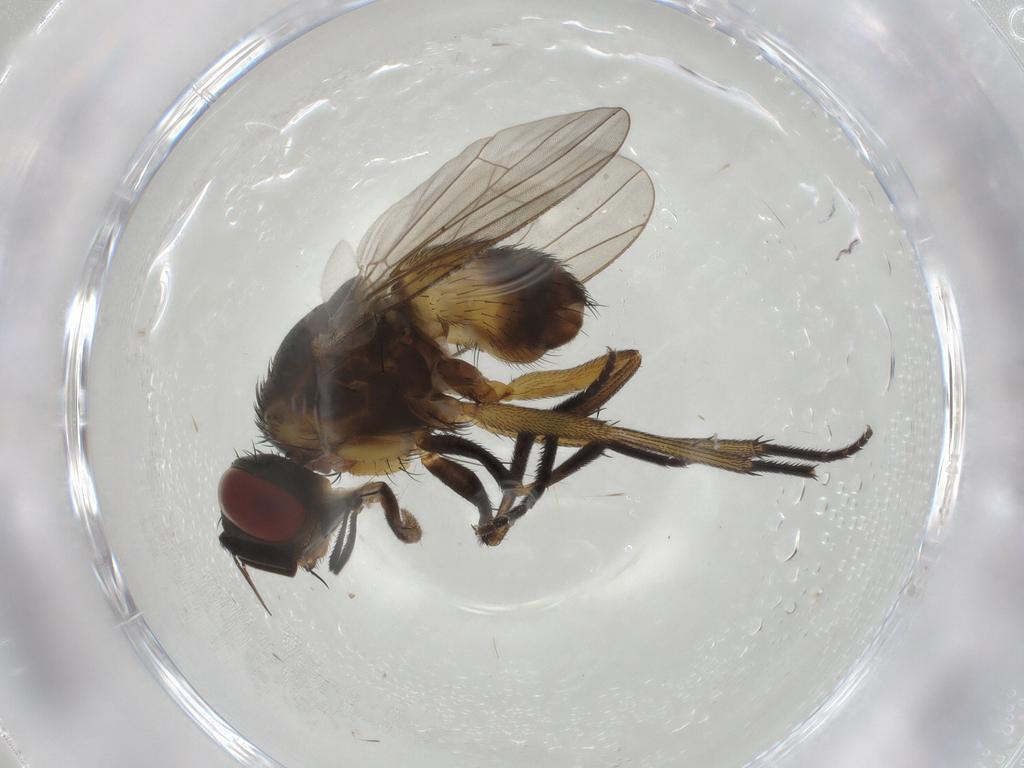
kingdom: Animalia
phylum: Arthropoda
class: Insecta
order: Diptera
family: Muscidae
